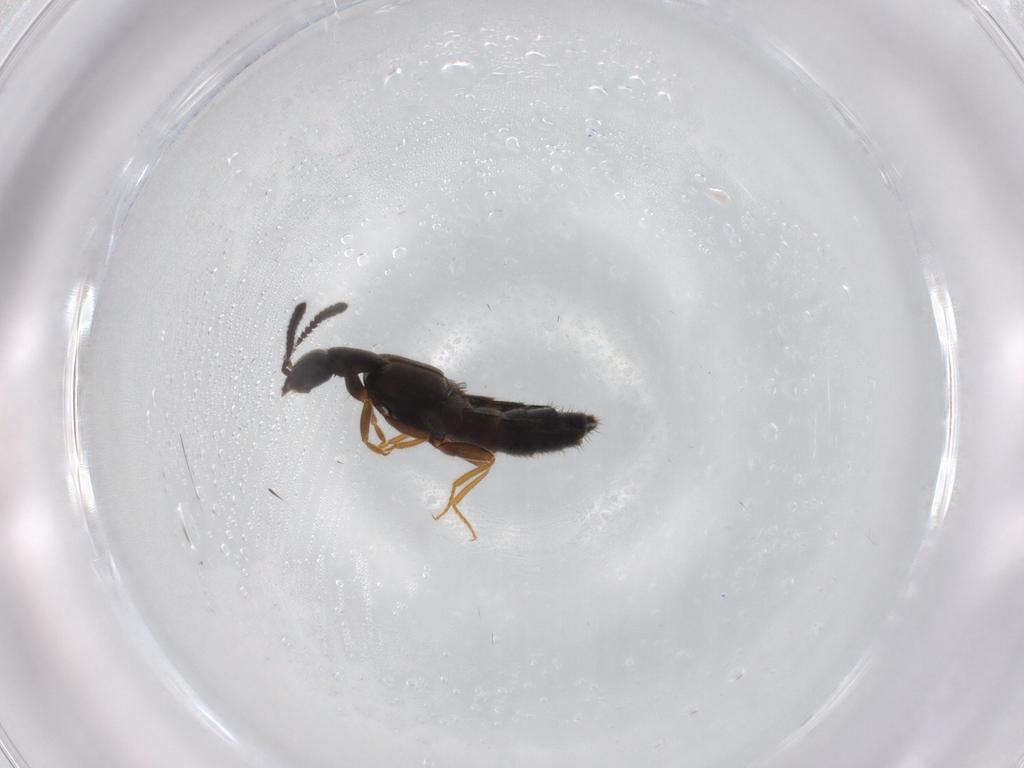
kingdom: Animalia
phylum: Arthropoda
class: Insecta
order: Coleoptera
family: Staphylinidae
